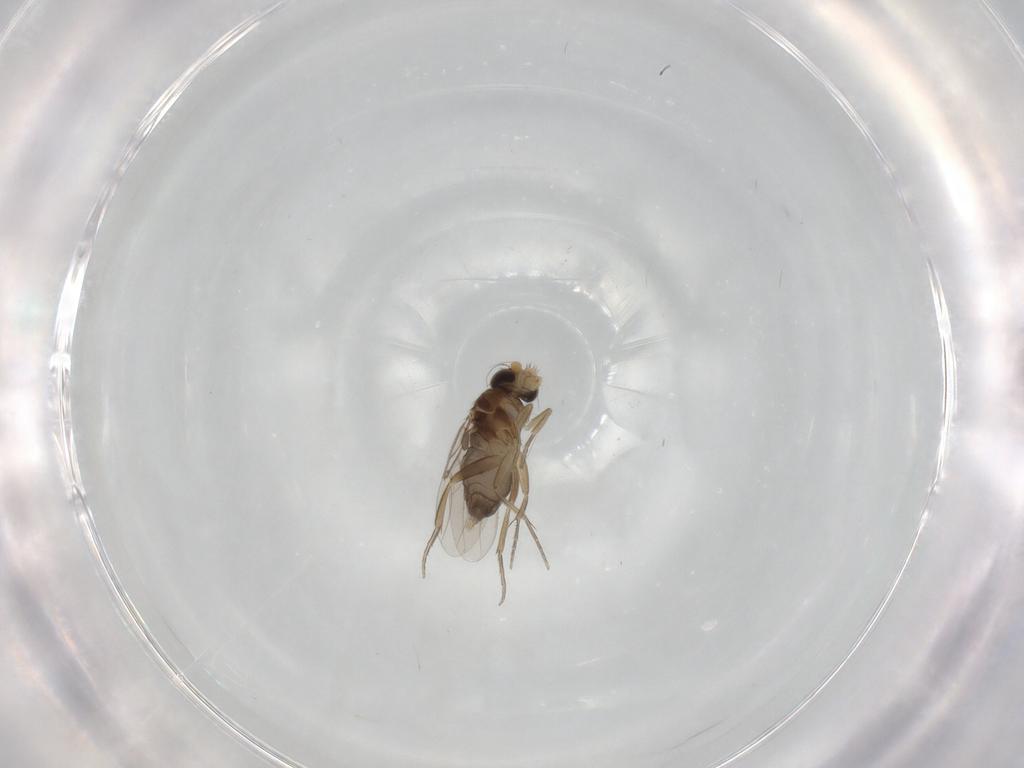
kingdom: Animalia
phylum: Arthropoda
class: Insecta
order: Diptera
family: Phoridae
